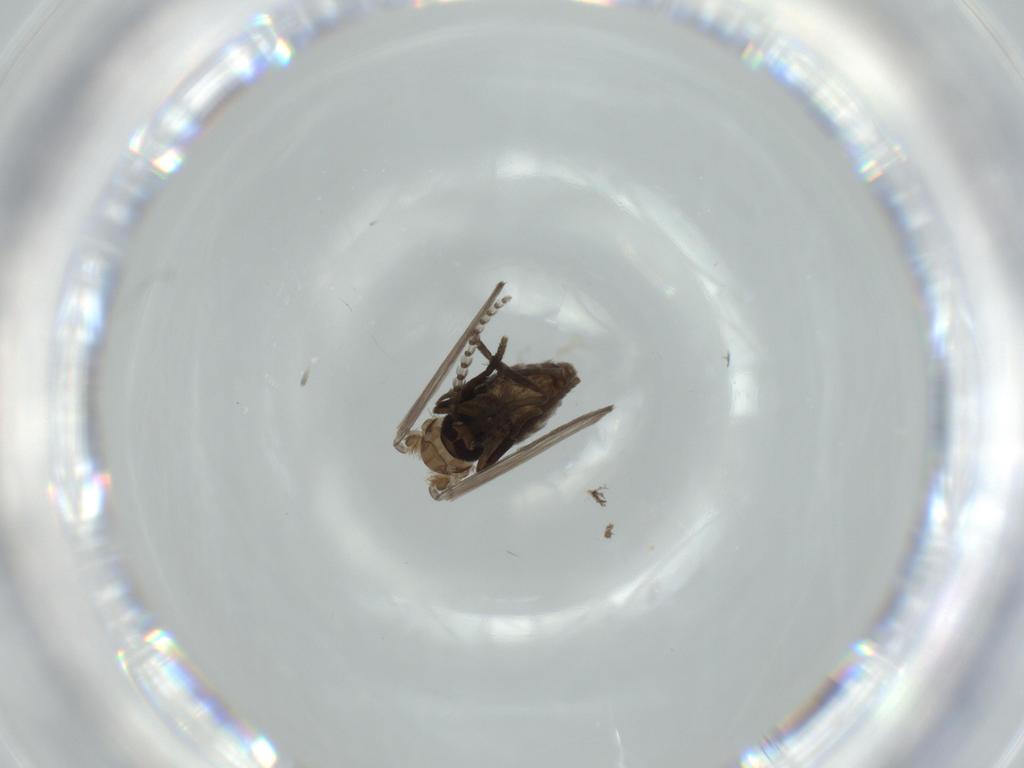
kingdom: Animalia
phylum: Arthropoda
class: Insecta
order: Diptera
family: Psychodidae
